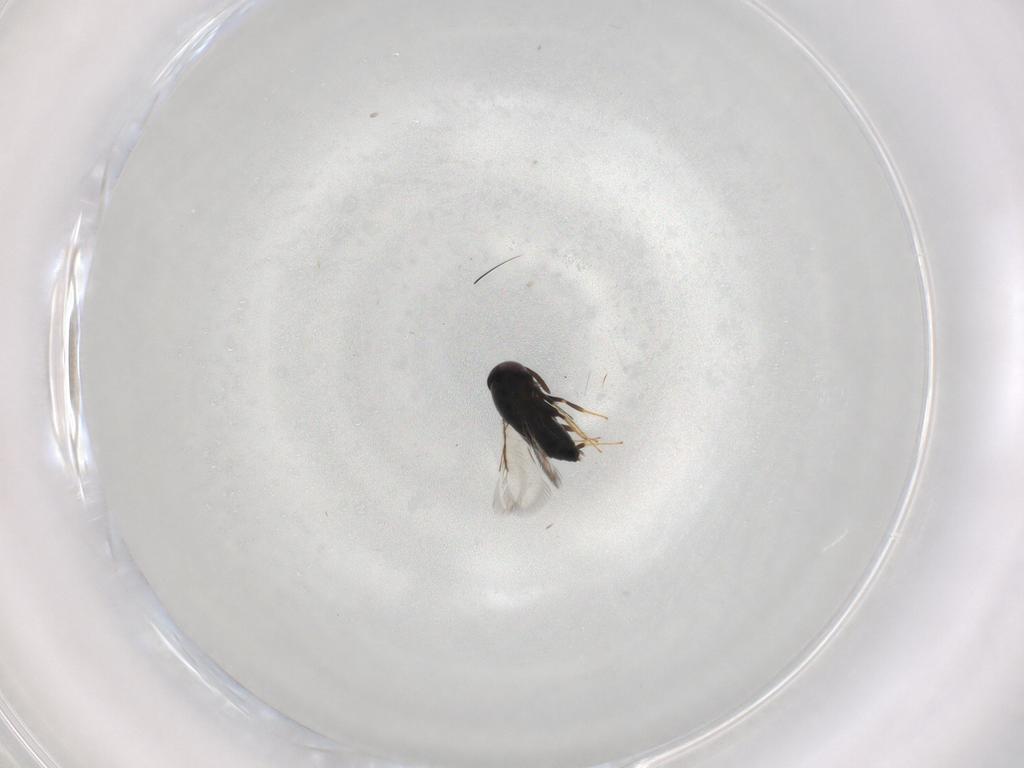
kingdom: Animalia
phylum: Arthropoda
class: Insecta
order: Hymenoptera
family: Signiphoridae
